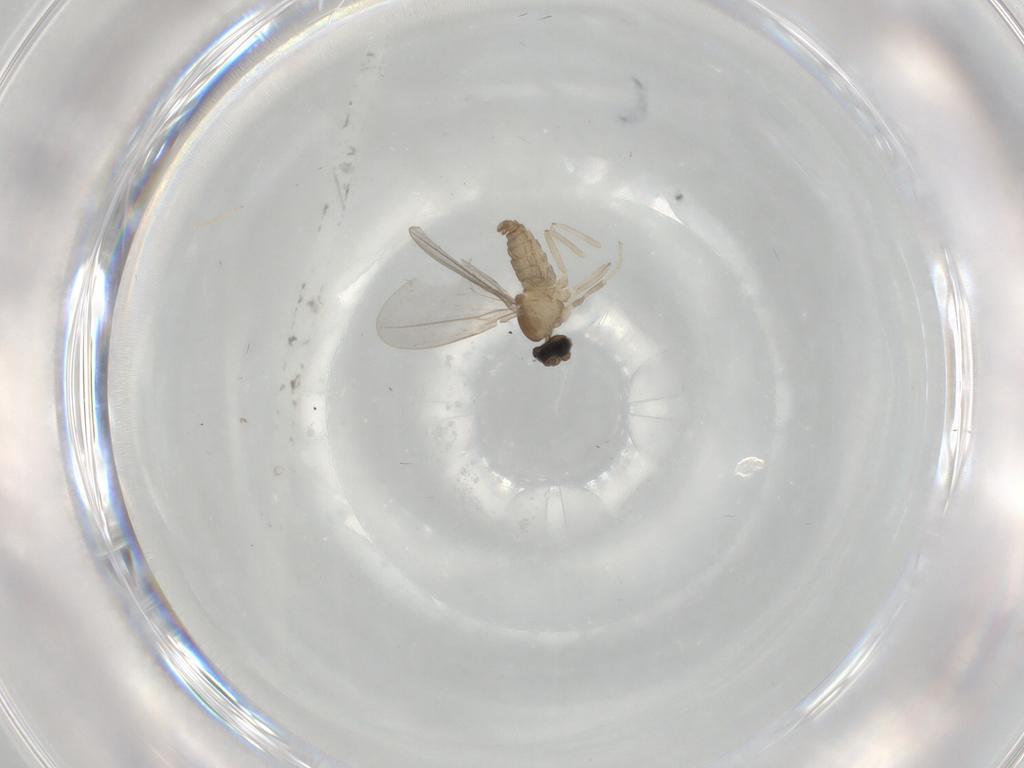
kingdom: Animalia
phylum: Arthropoda
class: Insecta
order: Diptera
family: Cecidomyiidae
